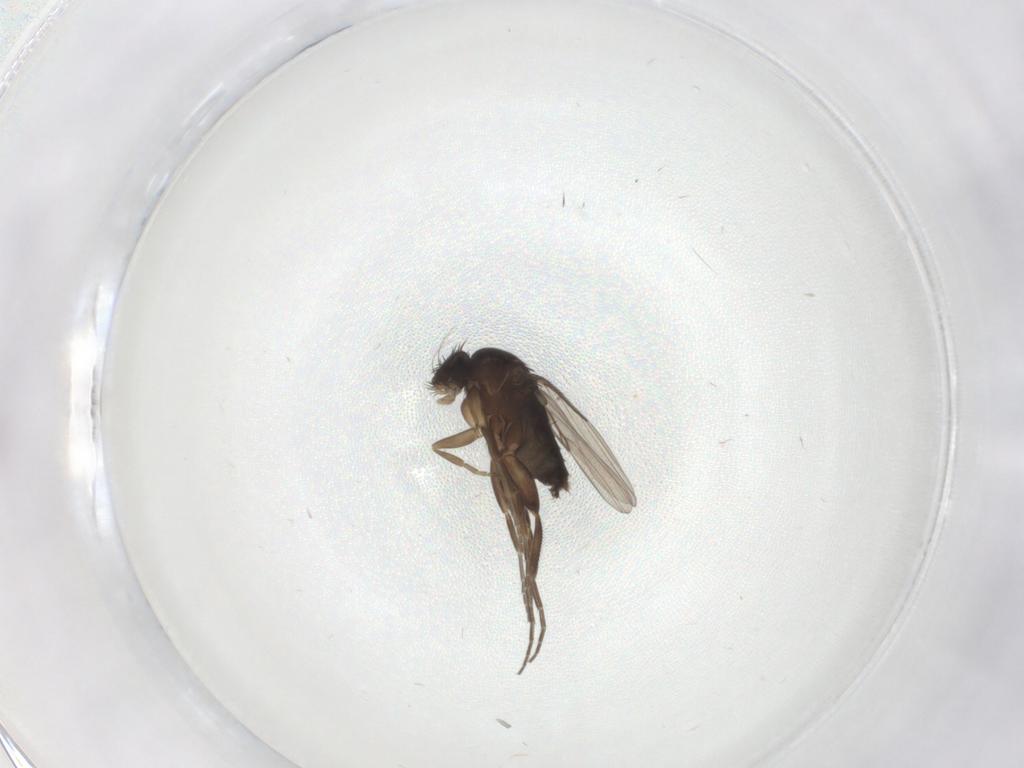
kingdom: Animalia
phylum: Arthropoda
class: Insecta
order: Diptera
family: Phoridae
